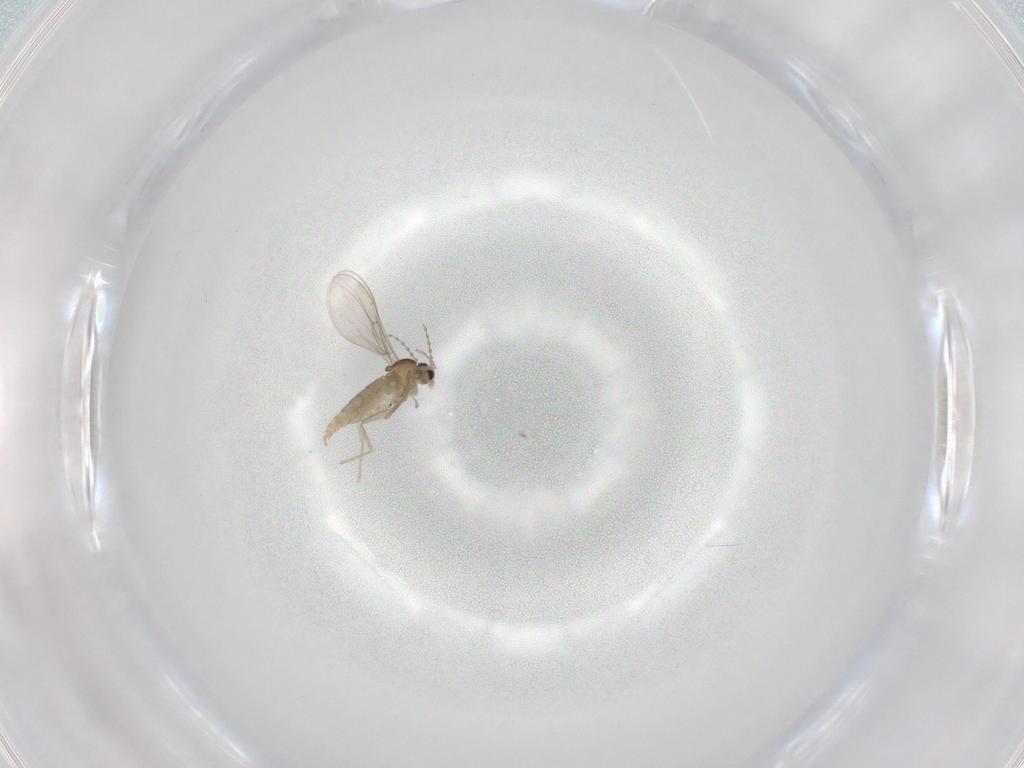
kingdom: Animalia
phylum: Arthropoda
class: Insecta
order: Diptera
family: Cecidomyiidae
